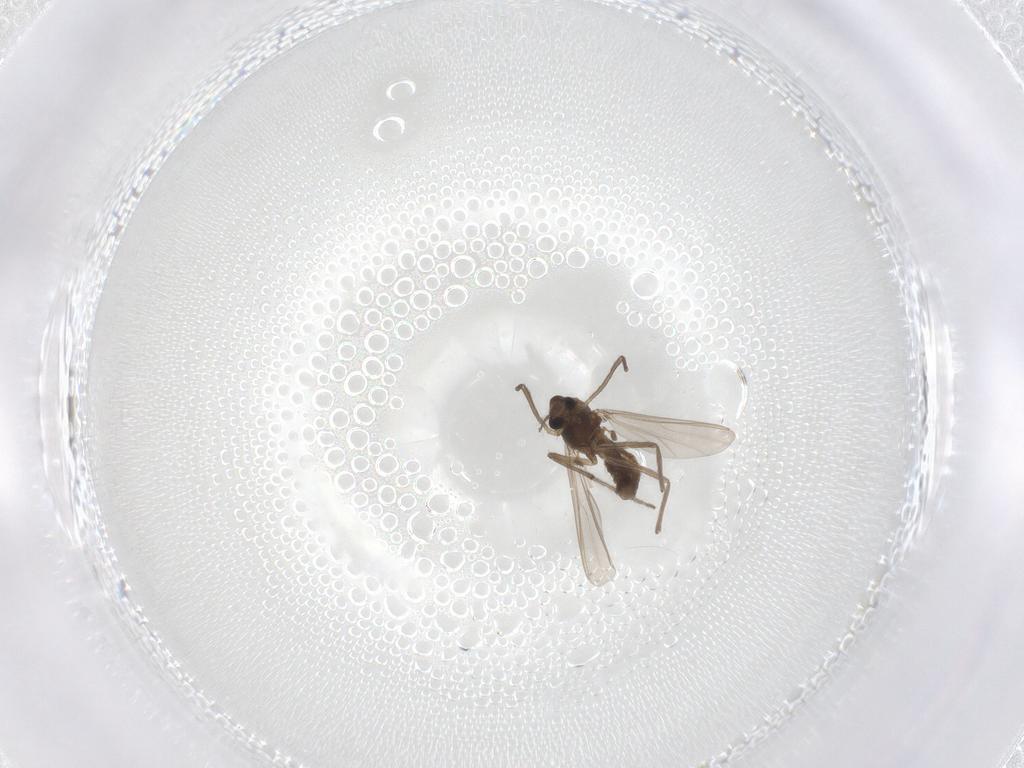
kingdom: Animalia
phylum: Arthropoda
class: Insecta
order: Diptera
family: Chironomidae
